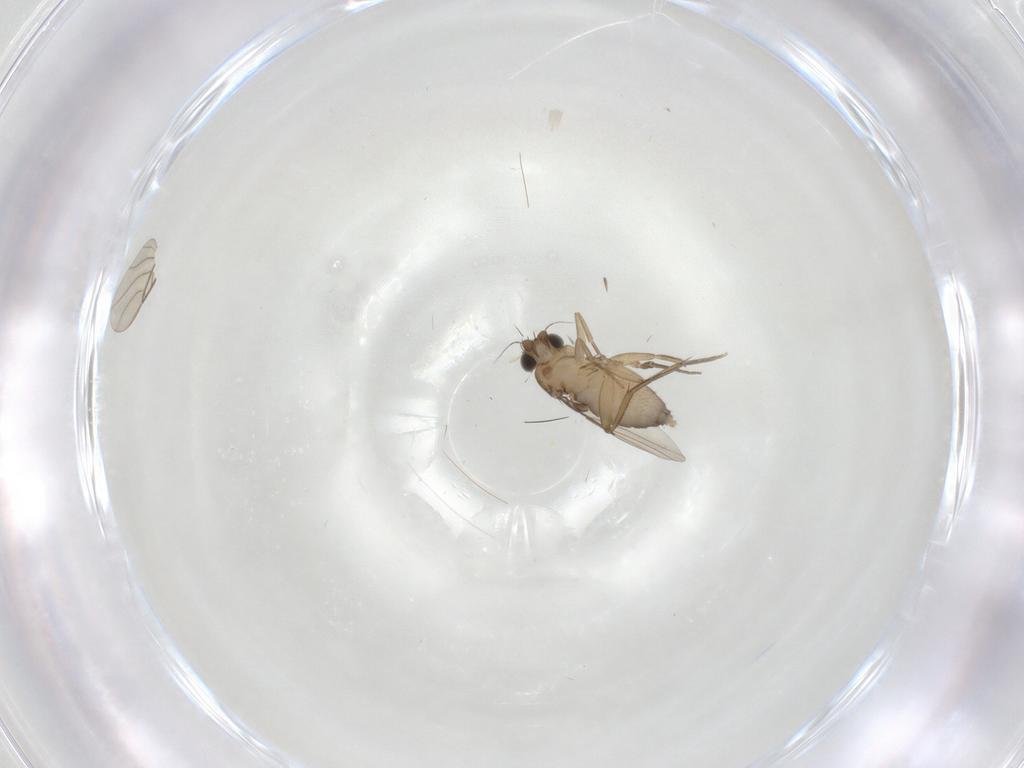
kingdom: Animalia
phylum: Arthropoda
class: Insecta
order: Diptera
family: Phoridae
